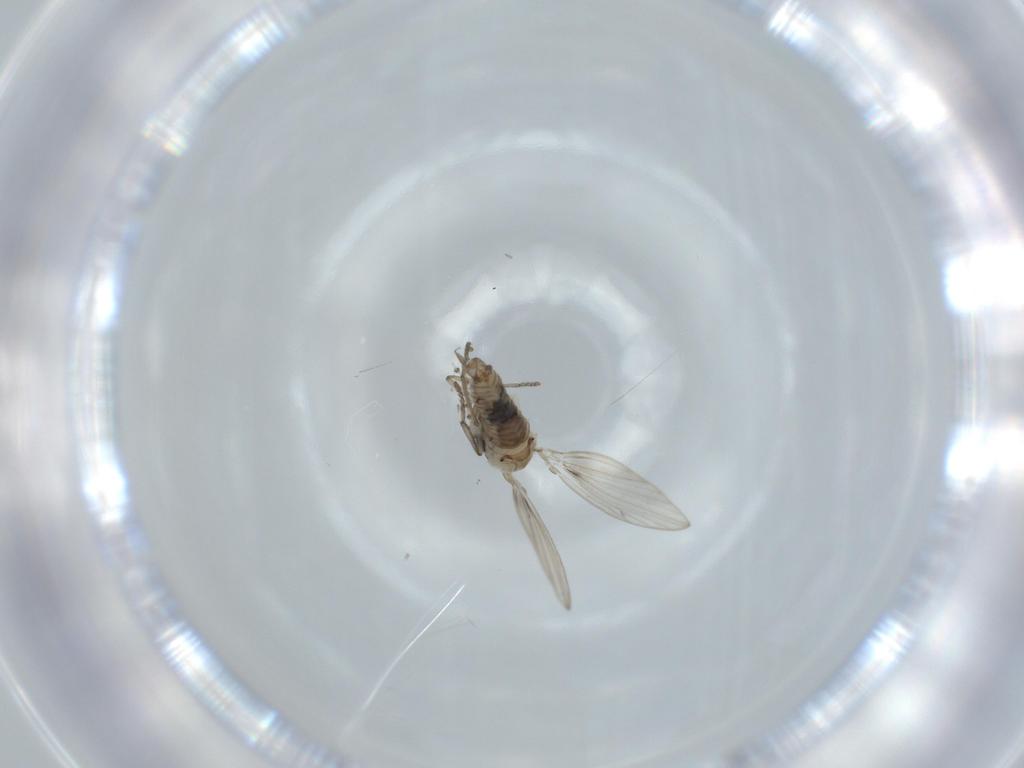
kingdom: Animalia
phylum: Arthropoda
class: Insecta
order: Diptera
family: Psychodidae
